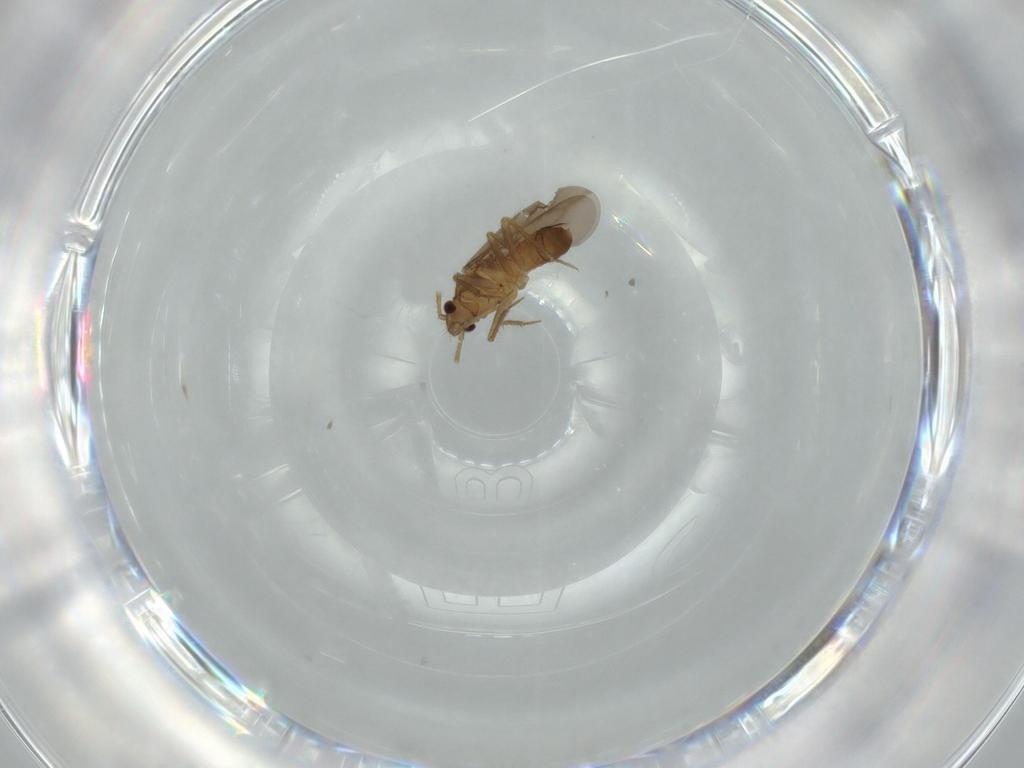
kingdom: Animalia
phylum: Arthropoda
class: Insecta
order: Hemiptera
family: Ceratocombidae
